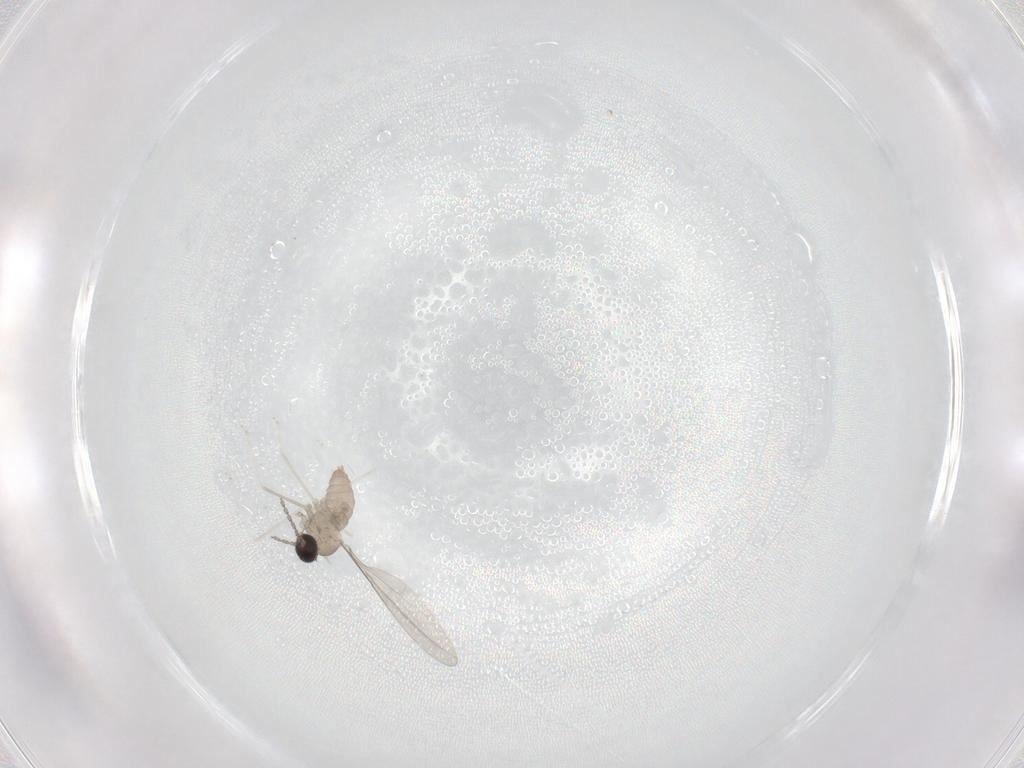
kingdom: Animalia
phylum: Arthropoda
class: Insecta
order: Diptera
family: Cecidomyiidae
